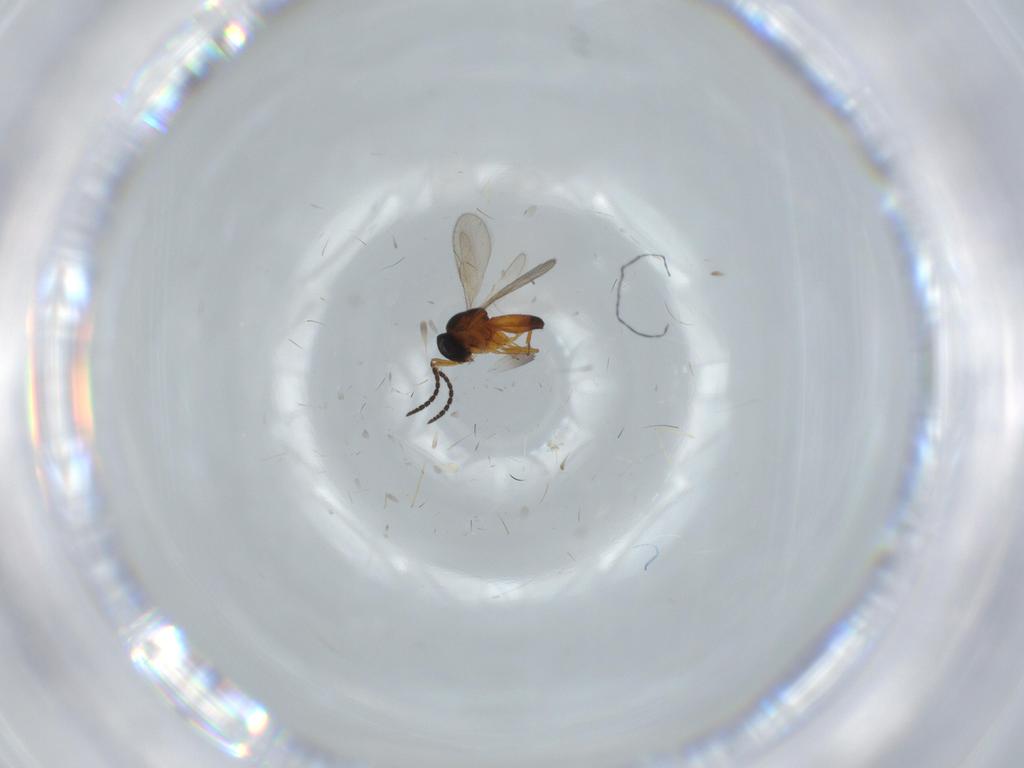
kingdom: Animalia
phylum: Arthropoda
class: Insecta
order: Hymenoptera
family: Scelionidae
